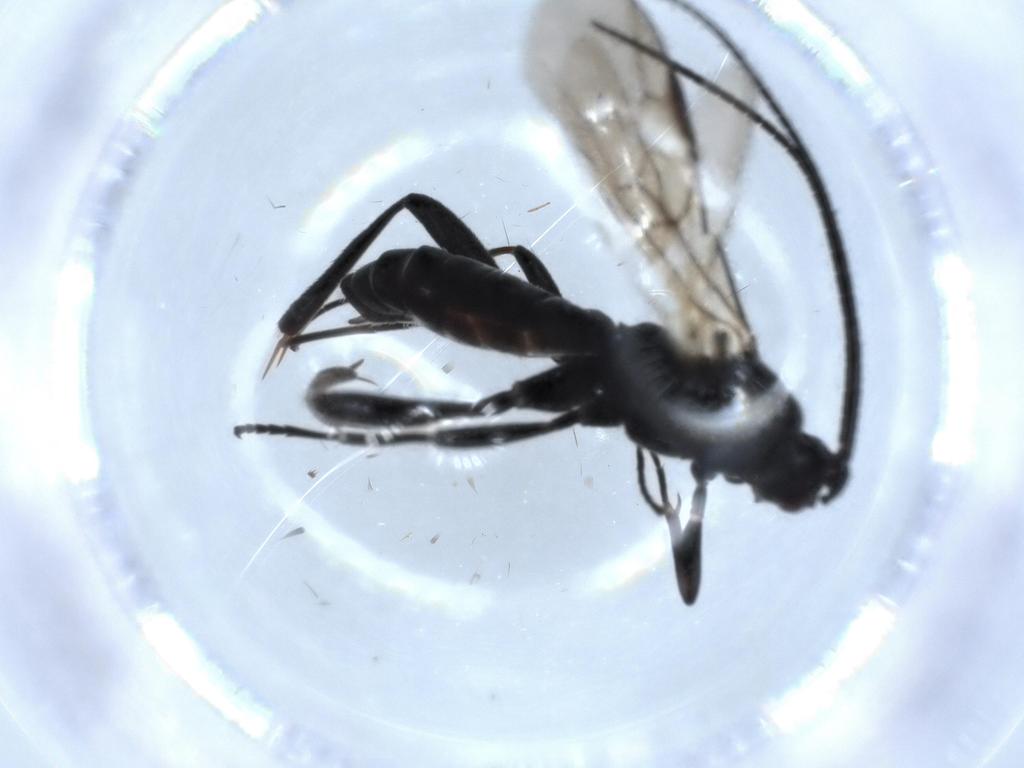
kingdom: Animalia
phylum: Arthropoda
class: Insecta
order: Hymenoptera
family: Braconidae
